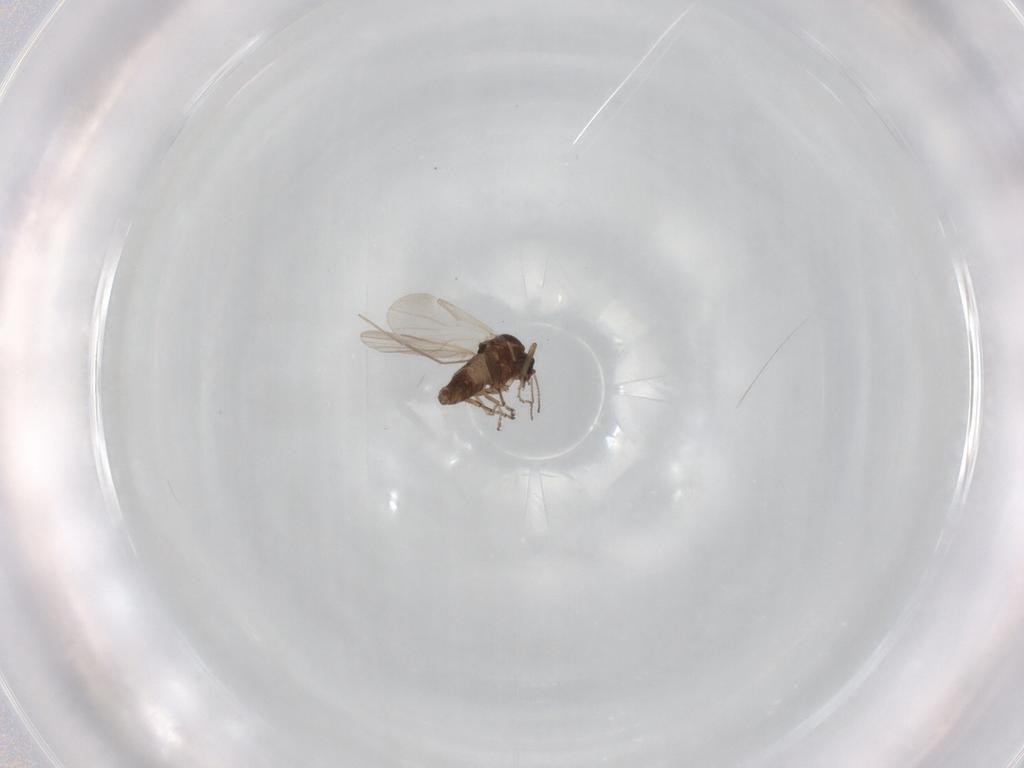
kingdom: Animalia
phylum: Arthropoda
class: Insecta
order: Diptera
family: Ceratopogonidae
